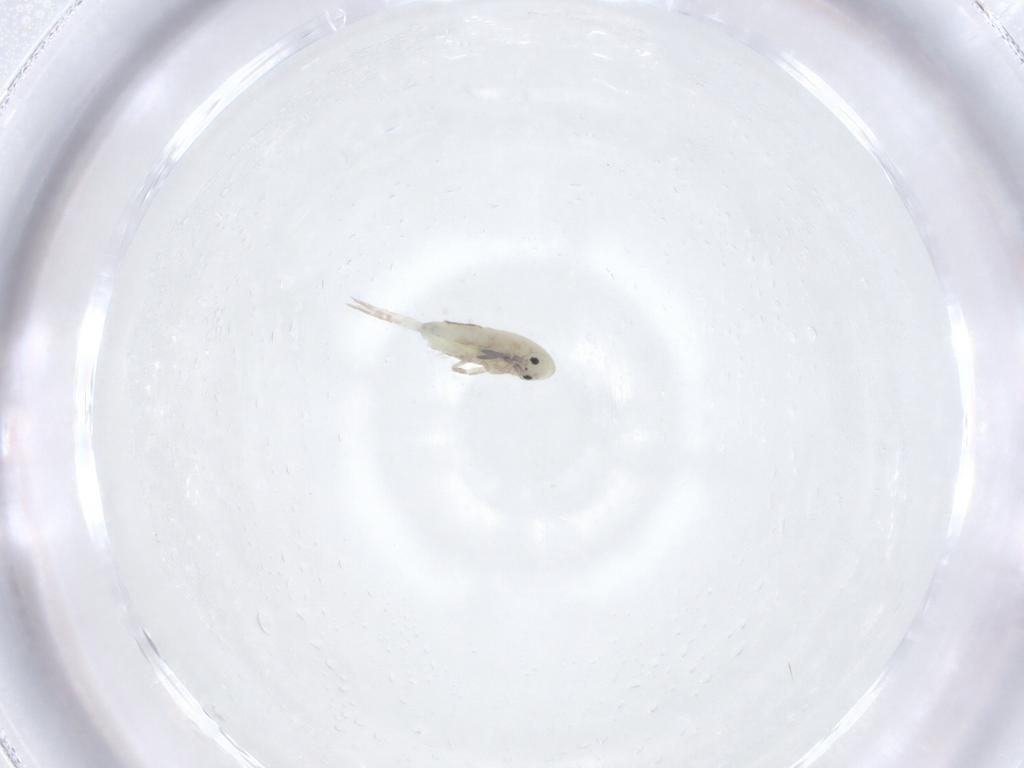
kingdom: Animalia
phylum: Arthropoda
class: Collembola
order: Entomobryomorpha
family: Entomobryidae
